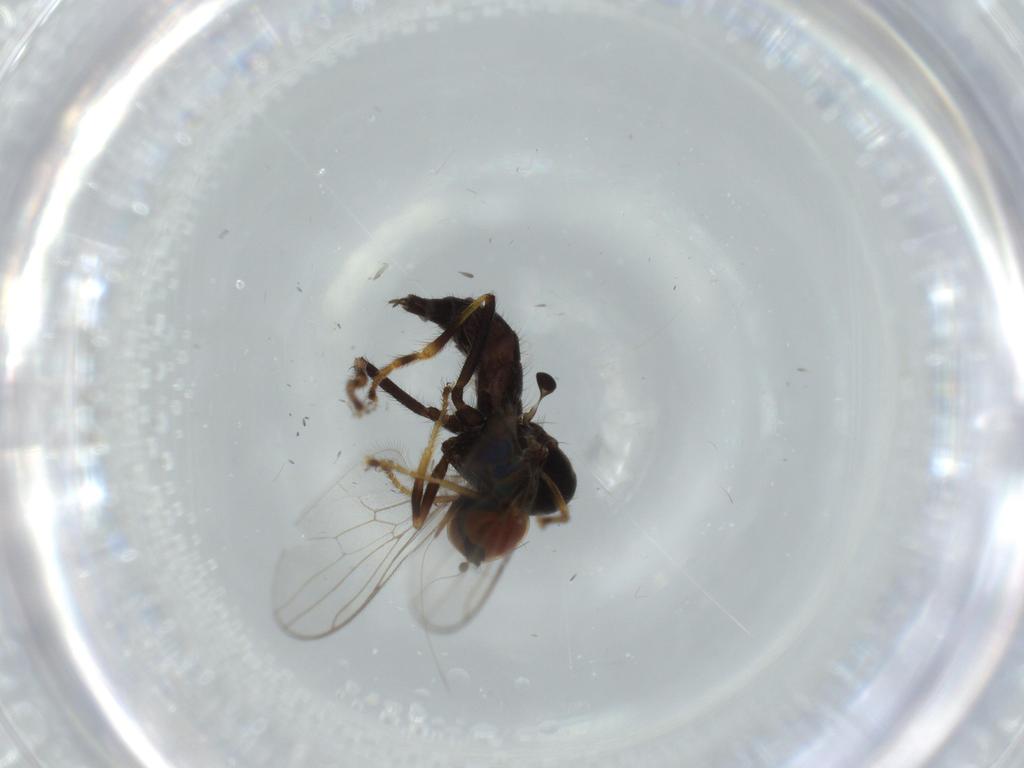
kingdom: Animalia
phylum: Arthropoda
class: Insecta
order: Diptera
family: Hybotidae
